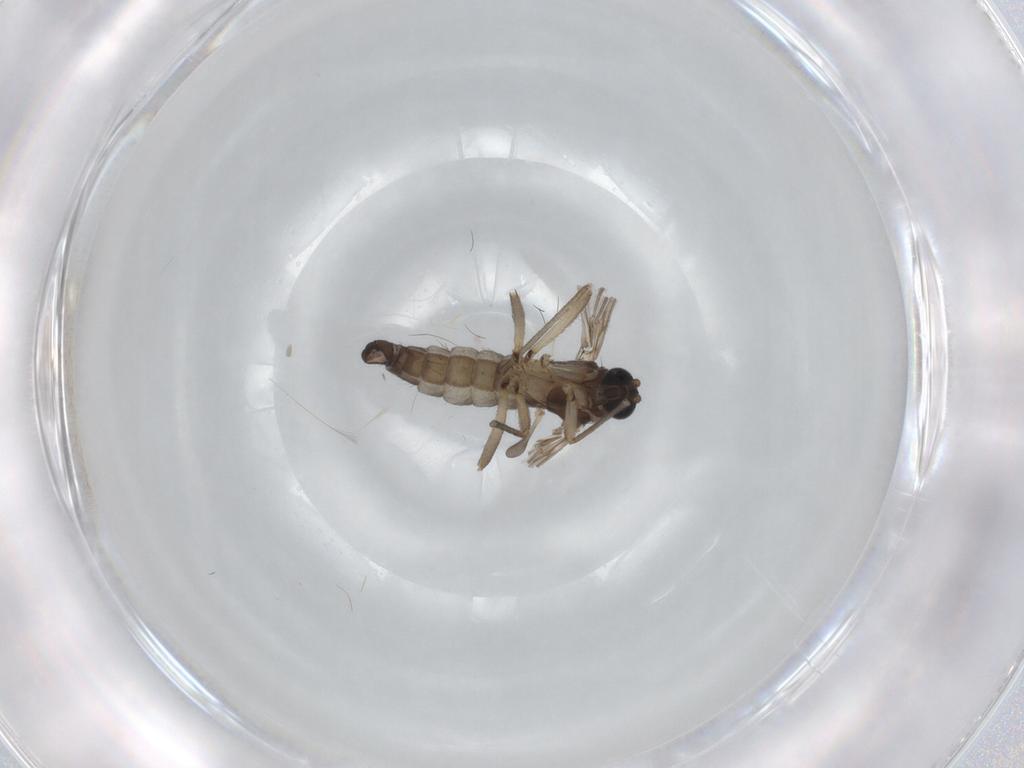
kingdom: Animalia
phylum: Arthropoda
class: Insecta
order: Diptera
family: Sciaridae
